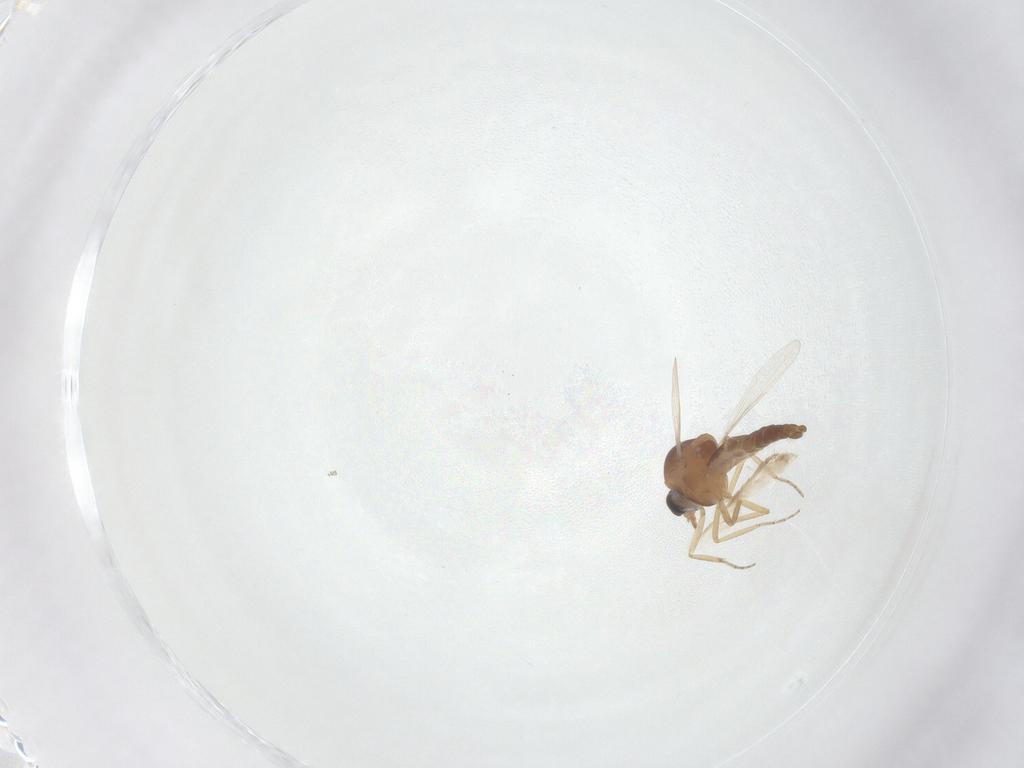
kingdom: Animalia
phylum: Arthropoda
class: Insecta
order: Diptera
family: Ceratopogonidae
